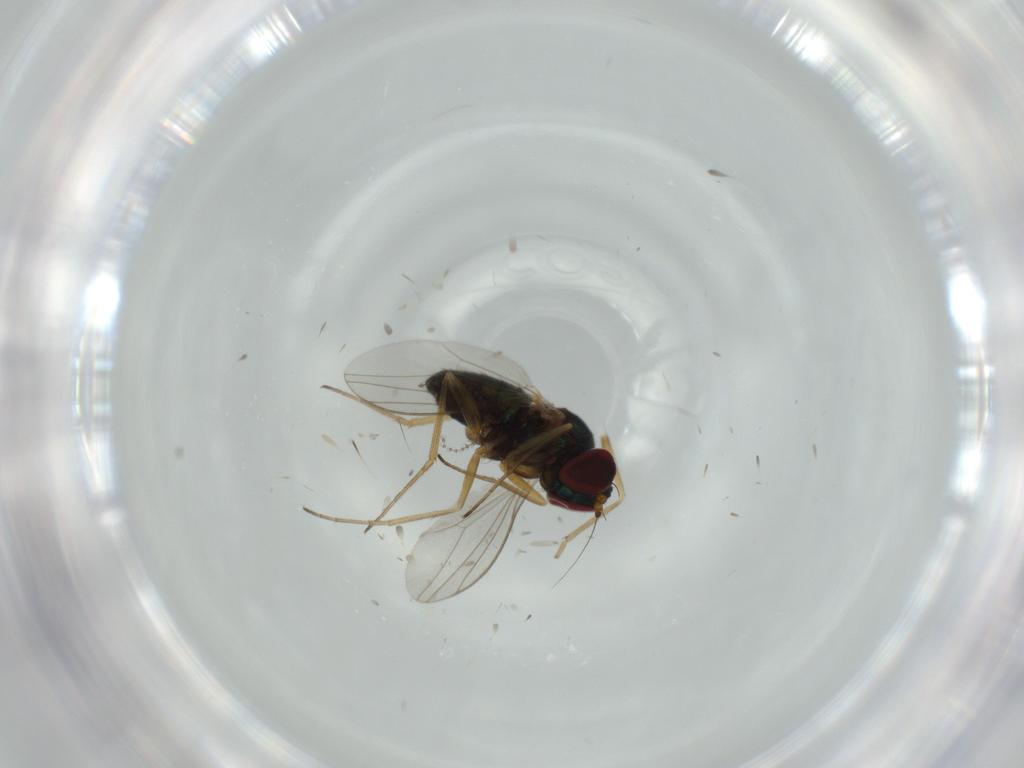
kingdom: Animalia
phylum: Arthropoda
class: Insecta
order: Diptera
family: Dolichopodidae
